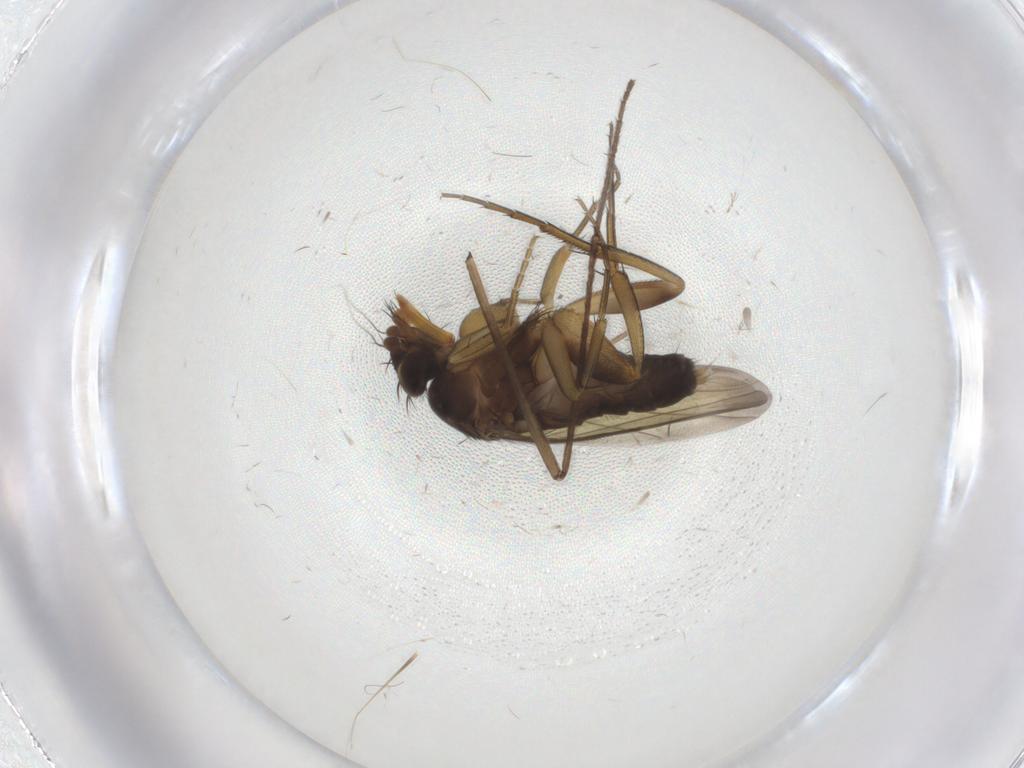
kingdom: Animalia
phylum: Arthropoda
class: Insecta
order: Diptera
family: Phoridae
